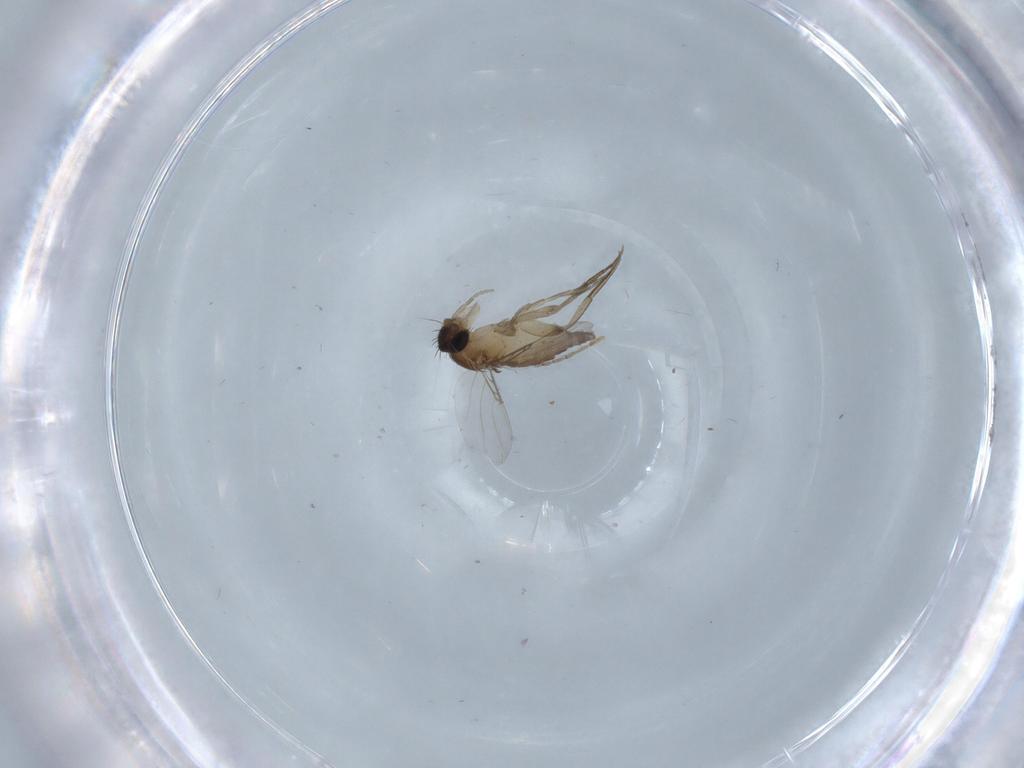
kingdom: Animalia
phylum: Arthropoda
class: Insecta
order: Diptera
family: Phoridae
